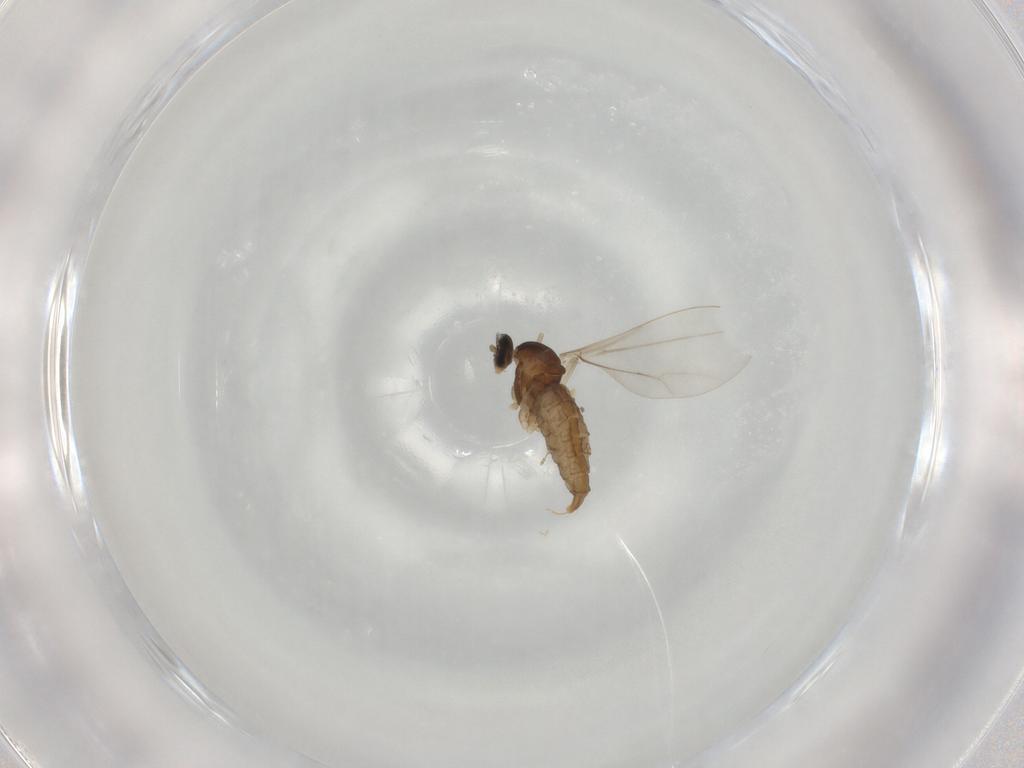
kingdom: Animalia
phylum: Arthropoda
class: Insecta
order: Diptera
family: Cecidomyiidae
